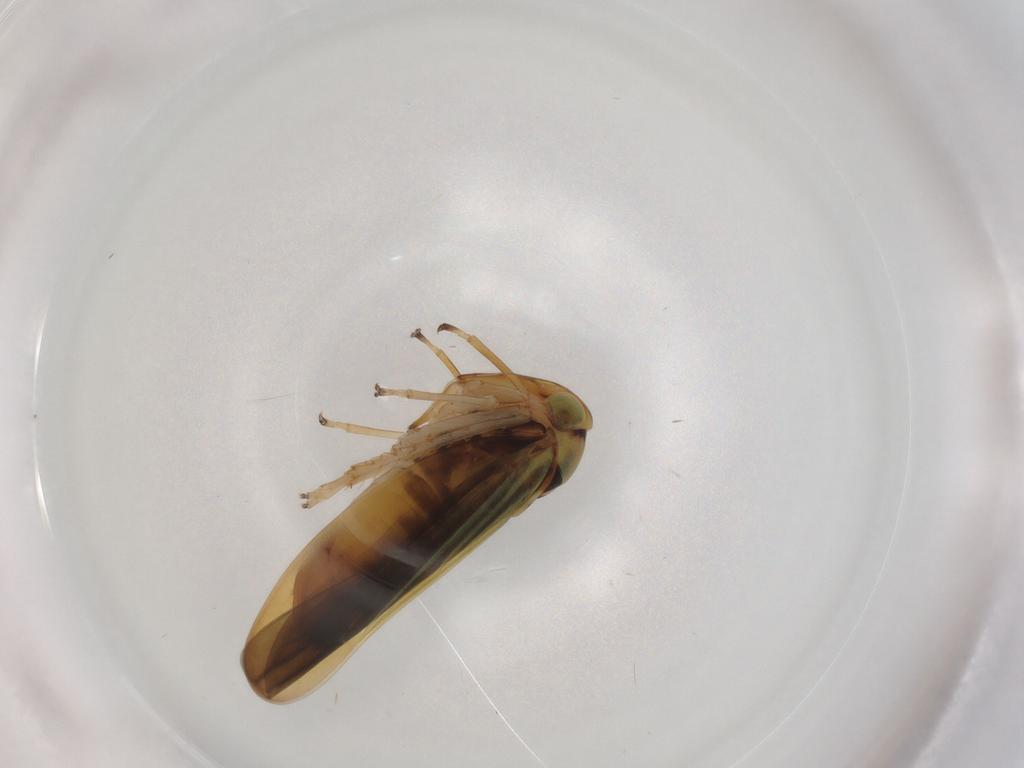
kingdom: Animalia
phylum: Arthropoda
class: Insecta
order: Hemiptera
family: Cicadellidae
